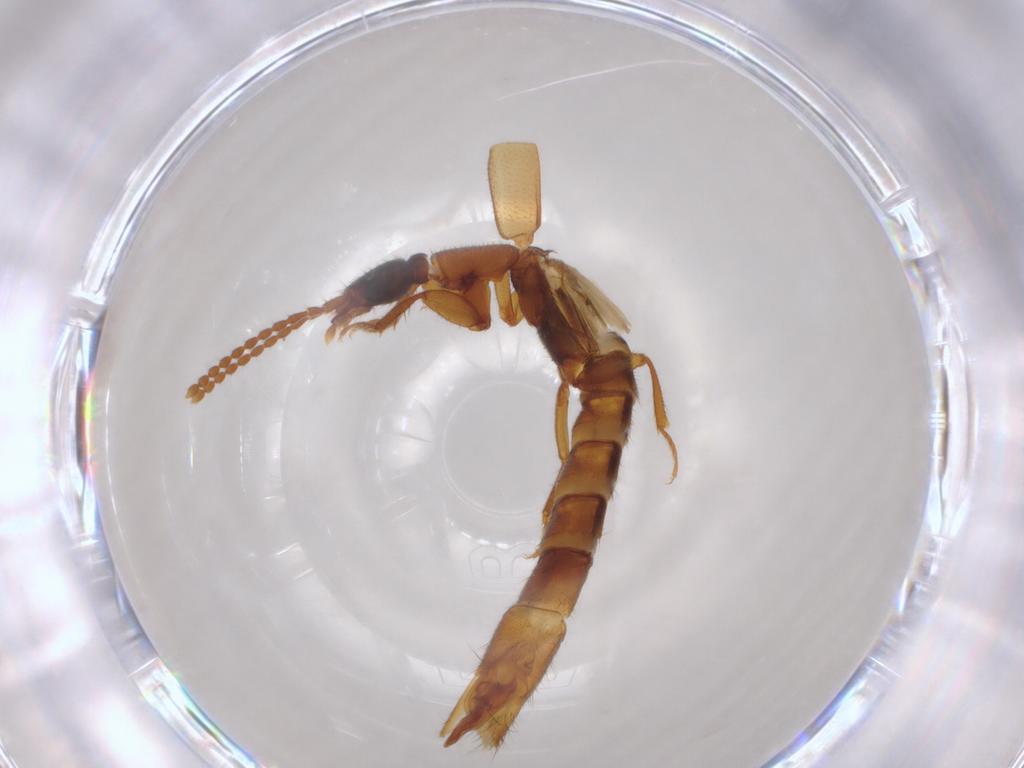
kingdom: Animalia
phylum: Arthropoda
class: Insecta
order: Coleoptera
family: Staphylinidae
